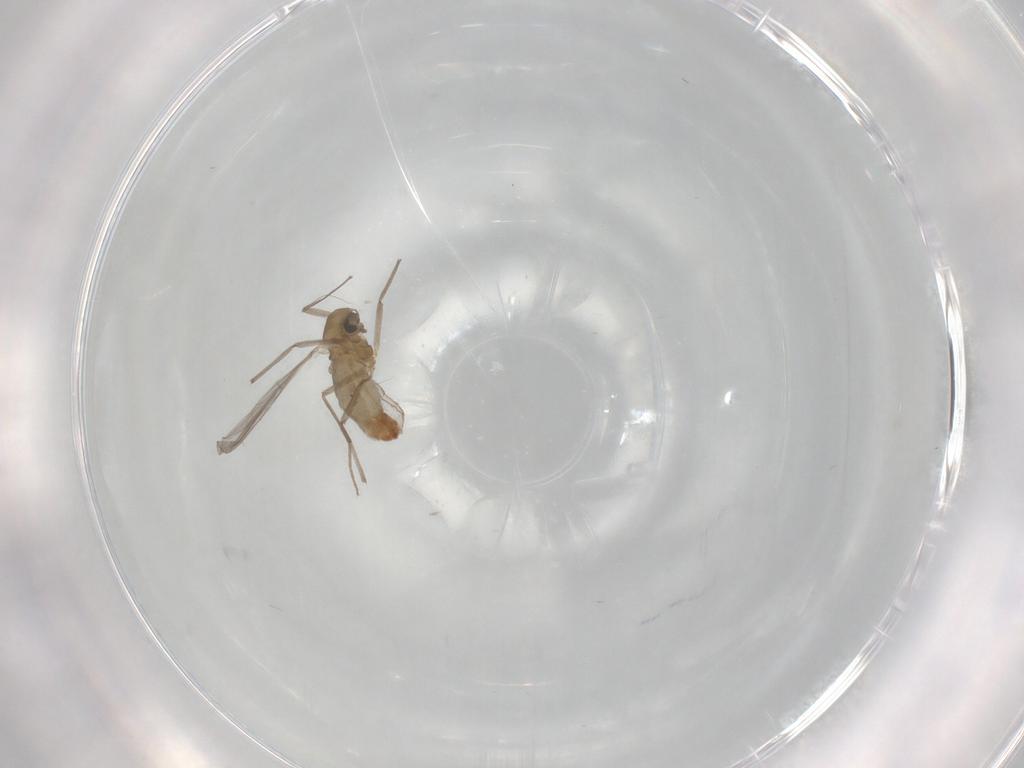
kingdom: Animalia
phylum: Arthropoda
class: Insecta
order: Diptera
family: Chironomidae
